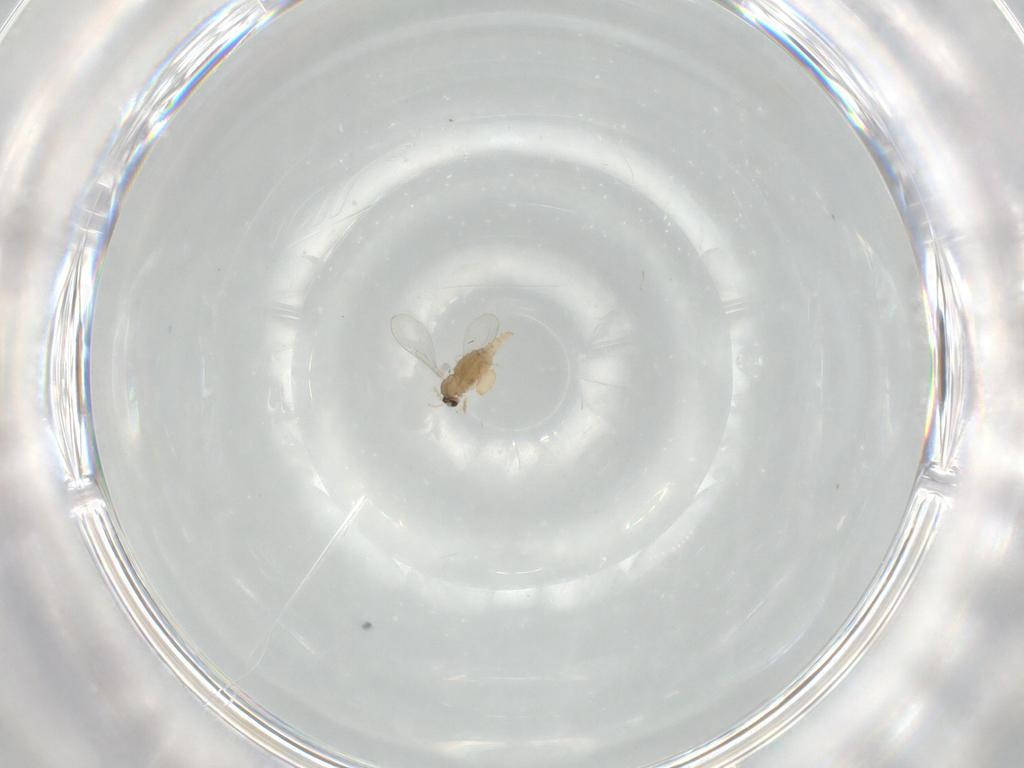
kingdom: Animalia
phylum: Arthropoda
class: Insecta
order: Diptera
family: Cecidomyiidae
